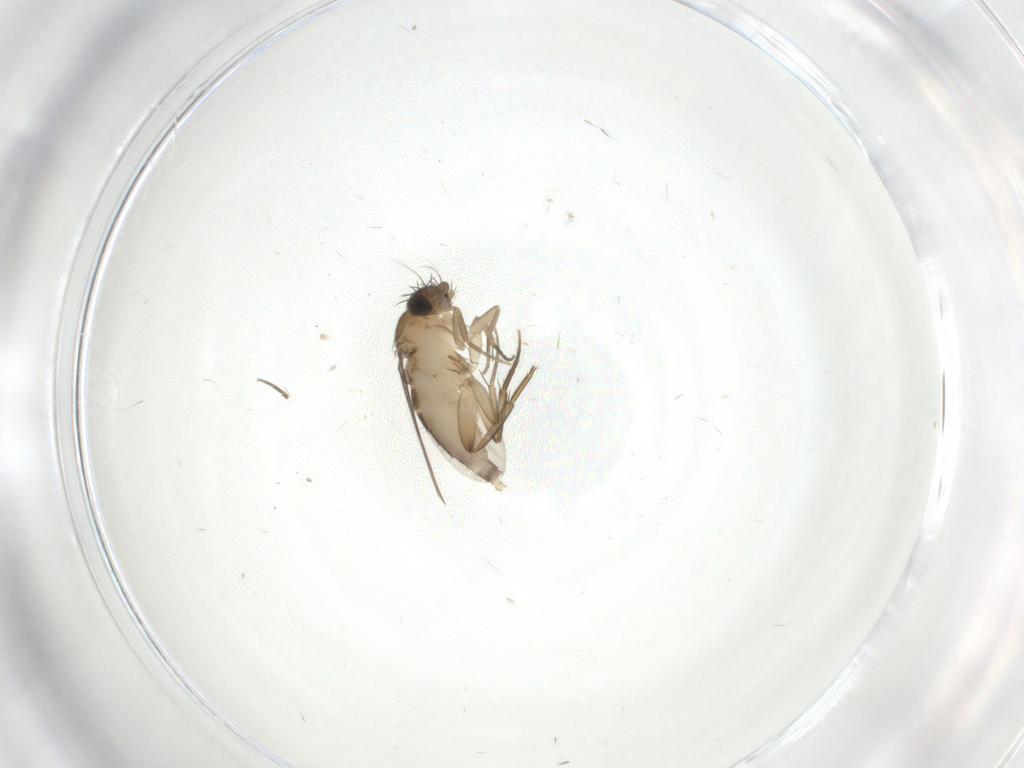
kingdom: Animalia
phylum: Arthropoda
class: Insecta
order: Diptera
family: Phoridae
